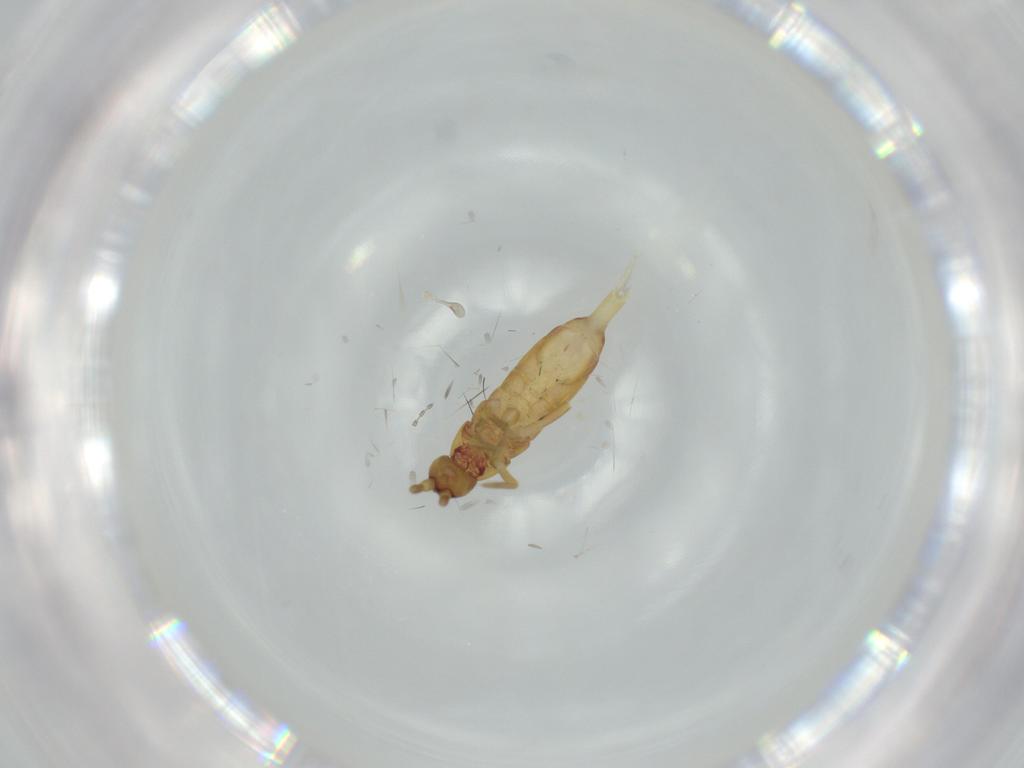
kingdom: Animalia
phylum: Arthropoda
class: Collembola
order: Entomobryomorpha
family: Tomoceridae
